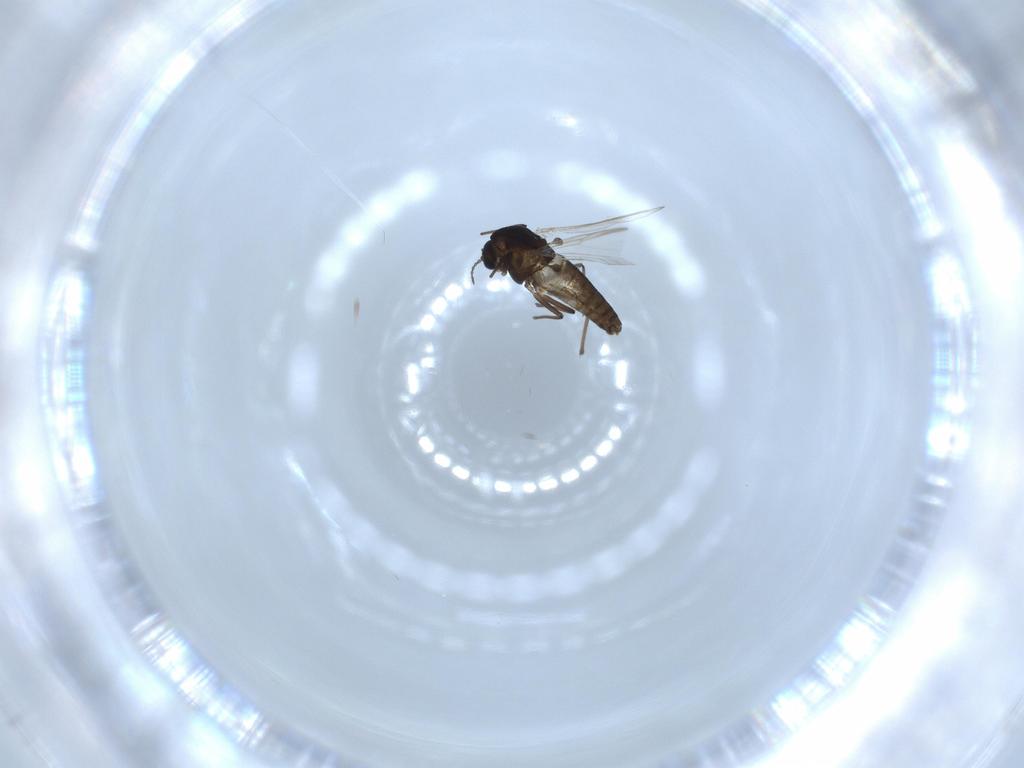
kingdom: Animalia
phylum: Arthropoda
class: Insecta
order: Diptera
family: Chironomidae
